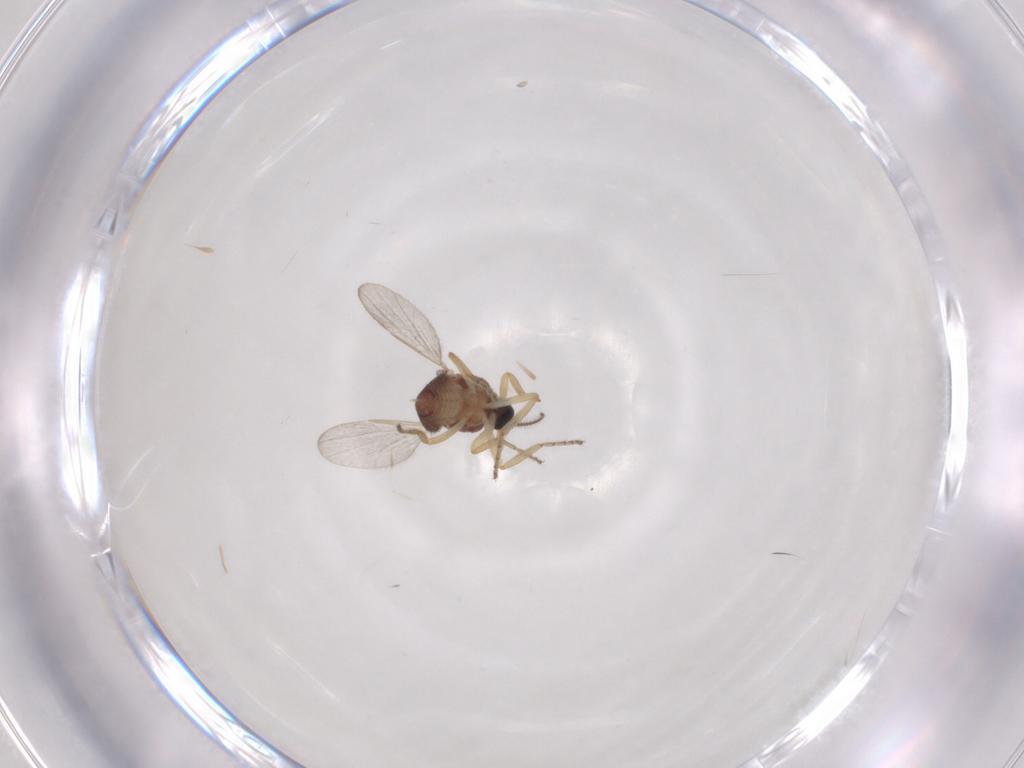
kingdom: Animalia
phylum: Arthropoda
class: Insecta
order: Diptera
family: Ceratopogonidae
